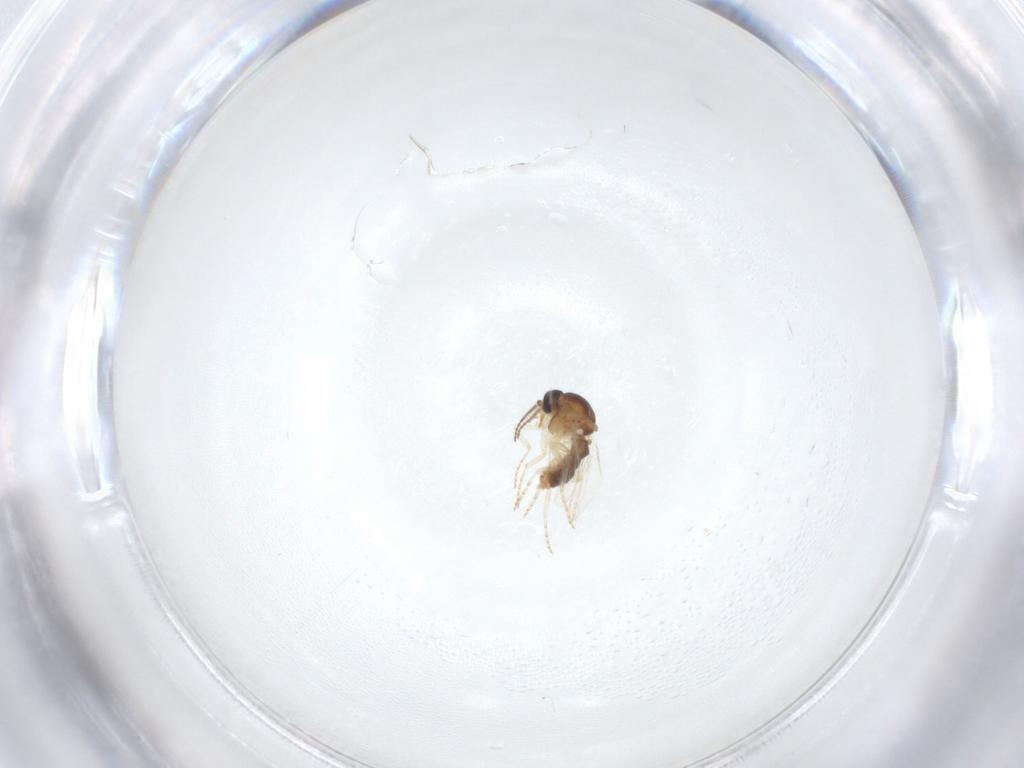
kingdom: Animalia
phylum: Arthropoda
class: Insecta
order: Diptera
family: Ceratopogonidae
